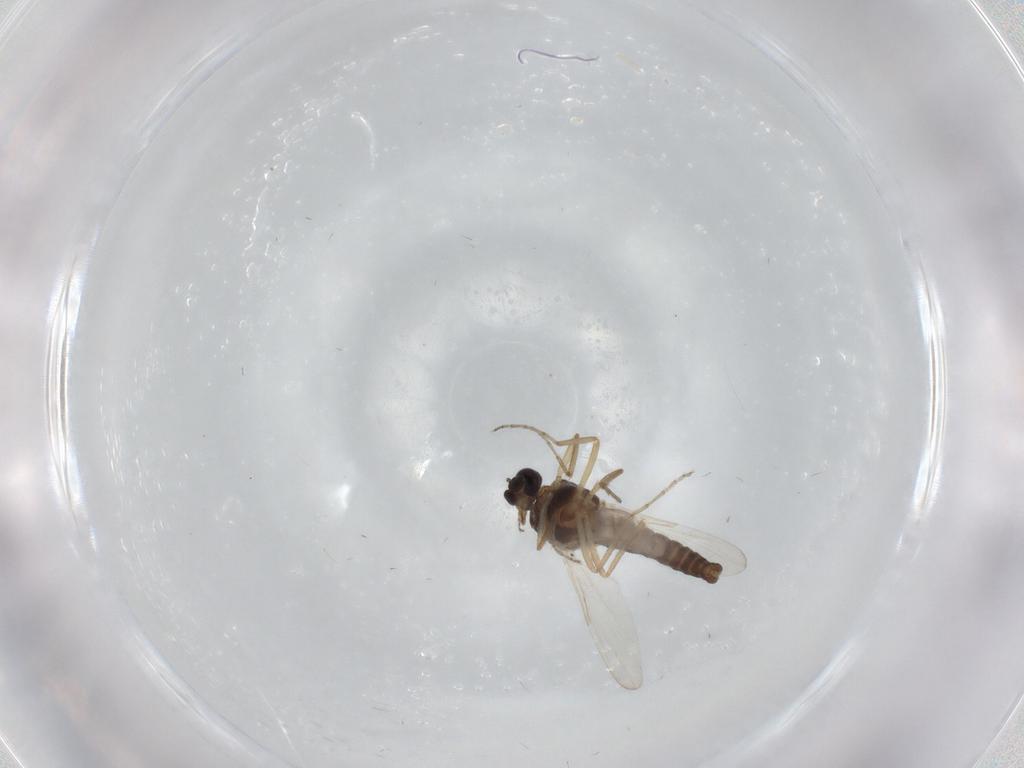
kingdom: Animalia
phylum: Arthropoda
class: Insecta
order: Diptera
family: Ceratopogonidae
